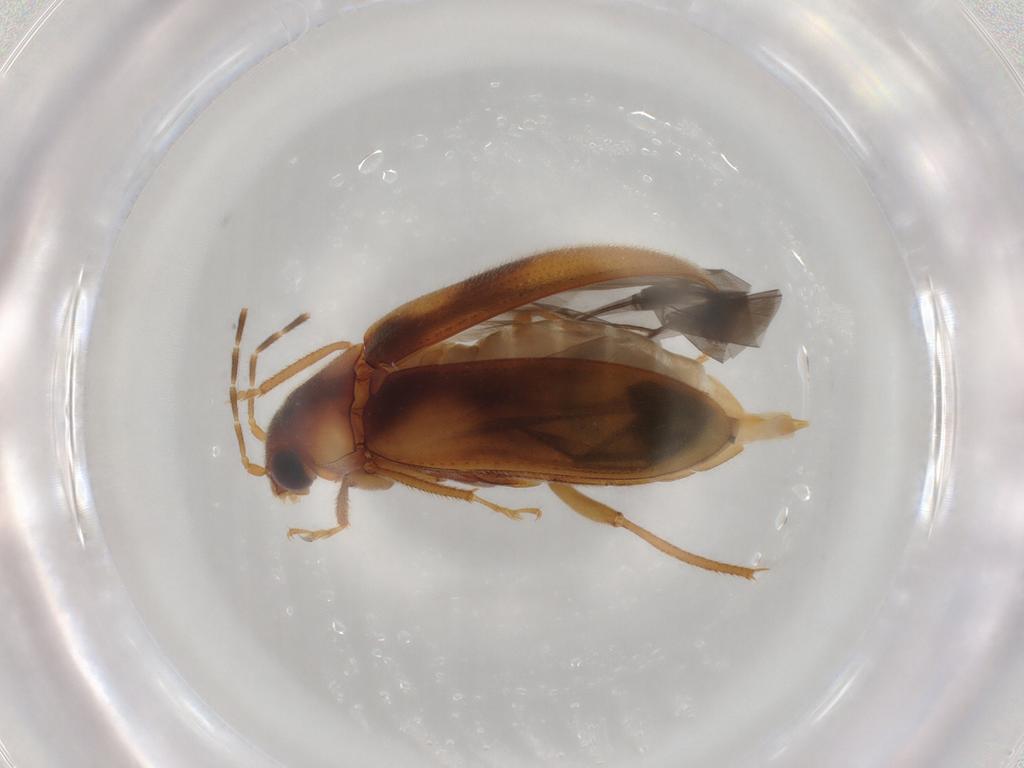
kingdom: Animalia
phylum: Arthropoda
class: Insecta
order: Coleoptera
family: Ptilodactylidae
